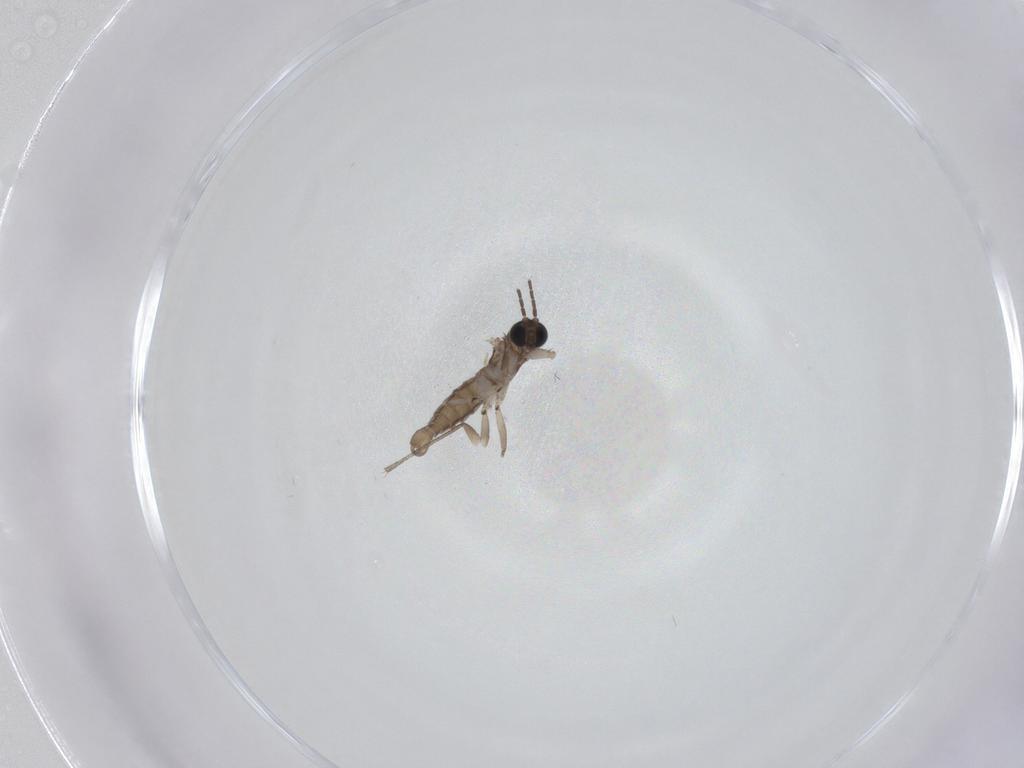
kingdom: Animalia
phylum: Arthropoda
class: Insecta
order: Diptera
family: Sciaridae
